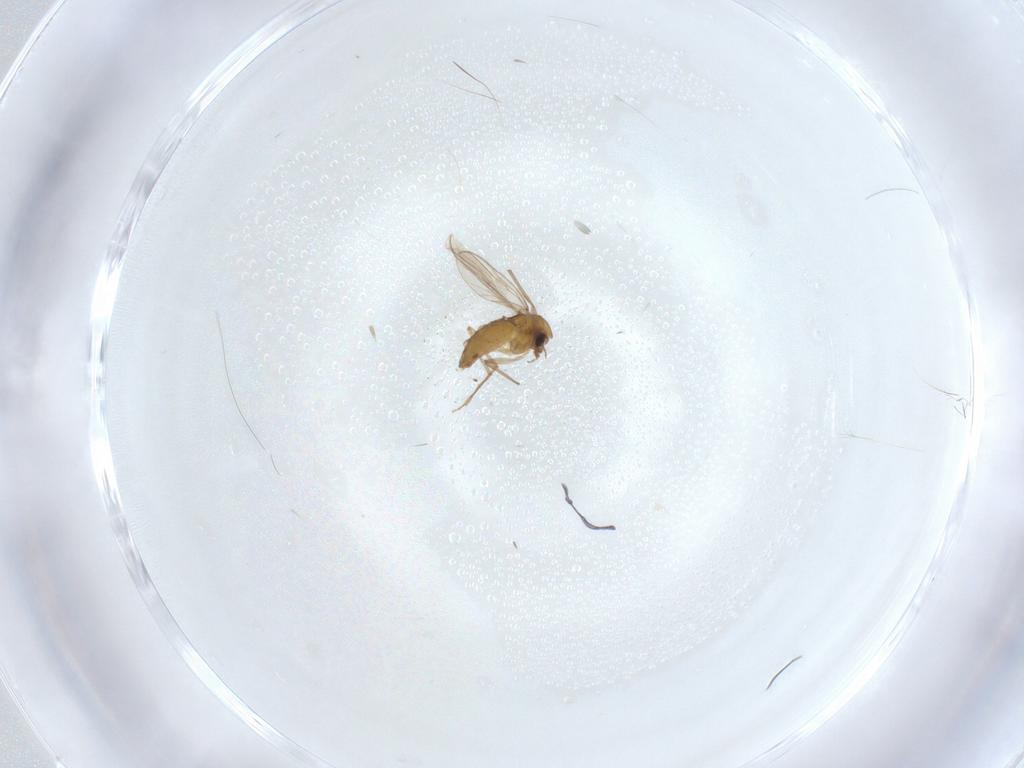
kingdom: Animalia
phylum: Arthropoda
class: Insecta
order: Diptera
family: Chironomidae
